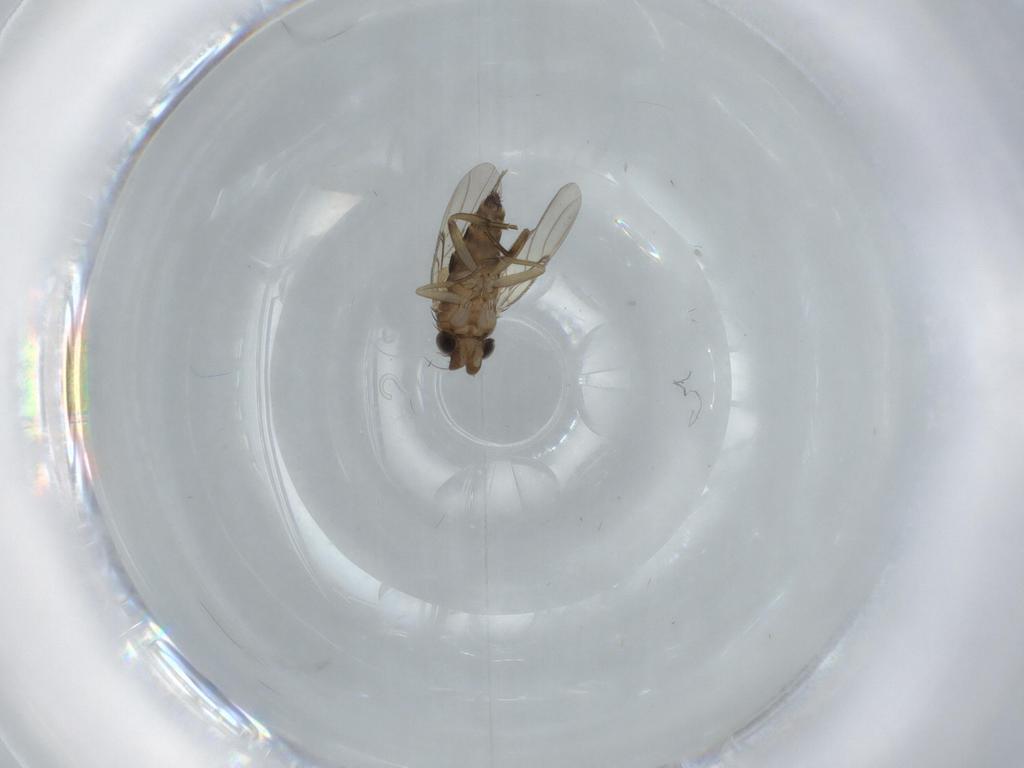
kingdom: Animalia
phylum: Arthropoda
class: Insecta
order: Diptera
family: Phoridae
